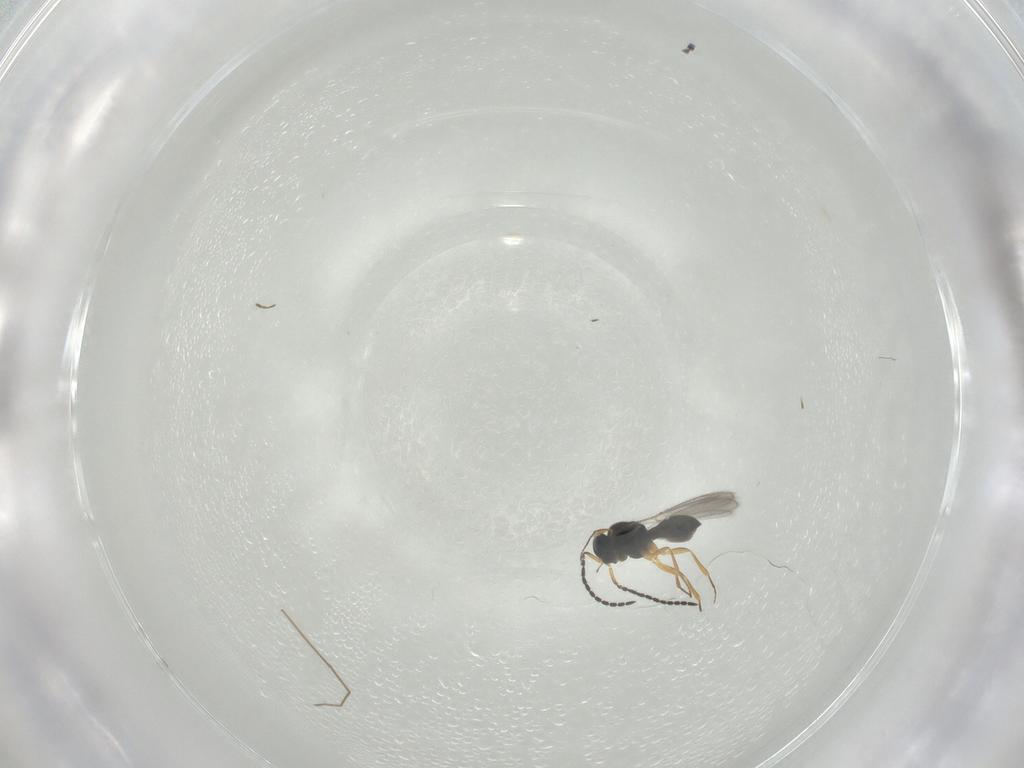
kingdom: Animalia
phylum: Arthropoda
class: Insecta
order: Hymenoptera
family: Scelionidae
